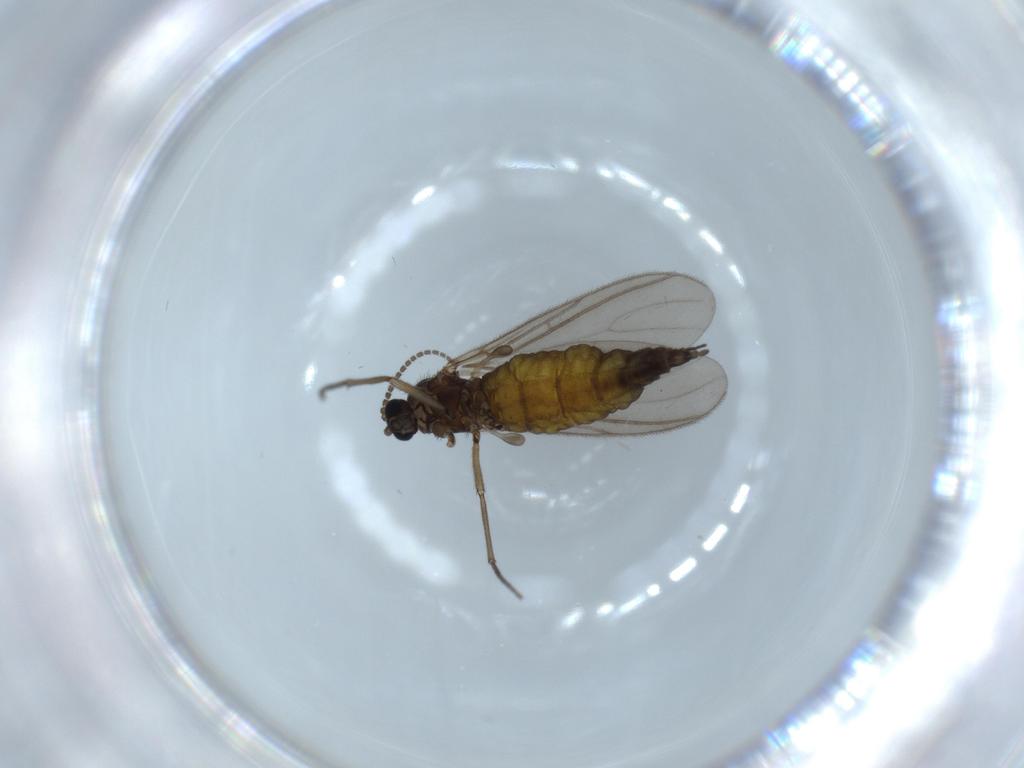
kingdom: Animalia
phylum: Arthropoda
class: Insecta
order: Diptera
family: Sciaridae
